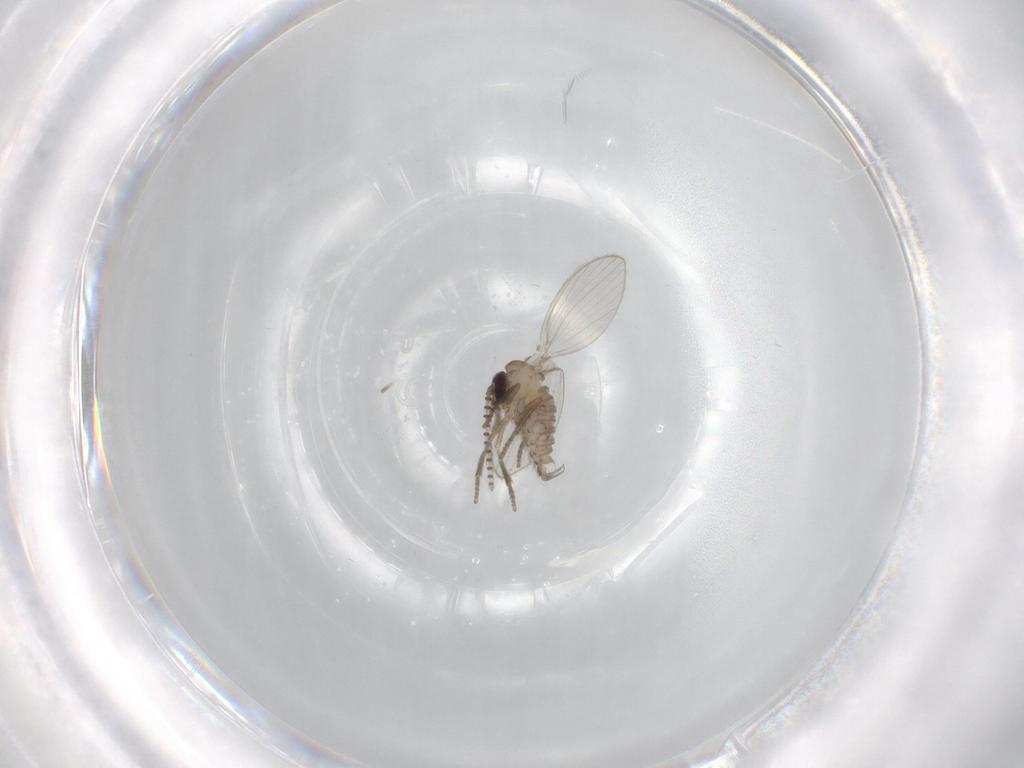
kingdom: Animalia
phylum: Arthropoda
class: Insecta
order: Diptera
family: Psychodidae
